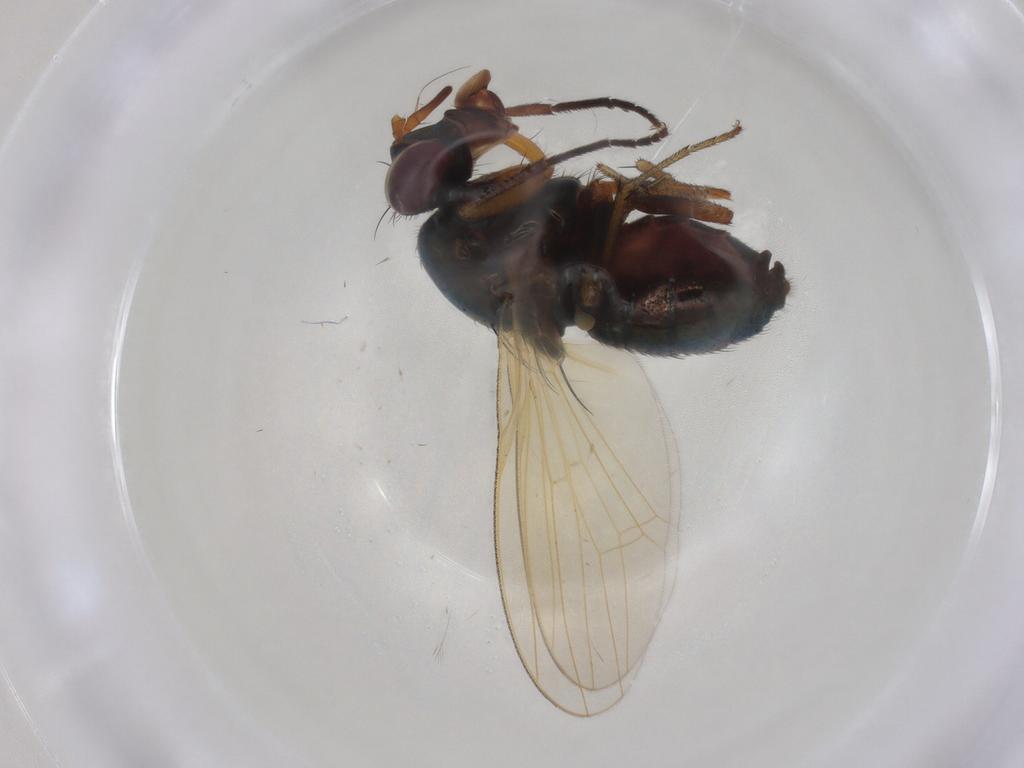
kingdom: Animalia
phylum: Arthropoda
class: Insecta
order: Diptera
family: Lauxaniidae
